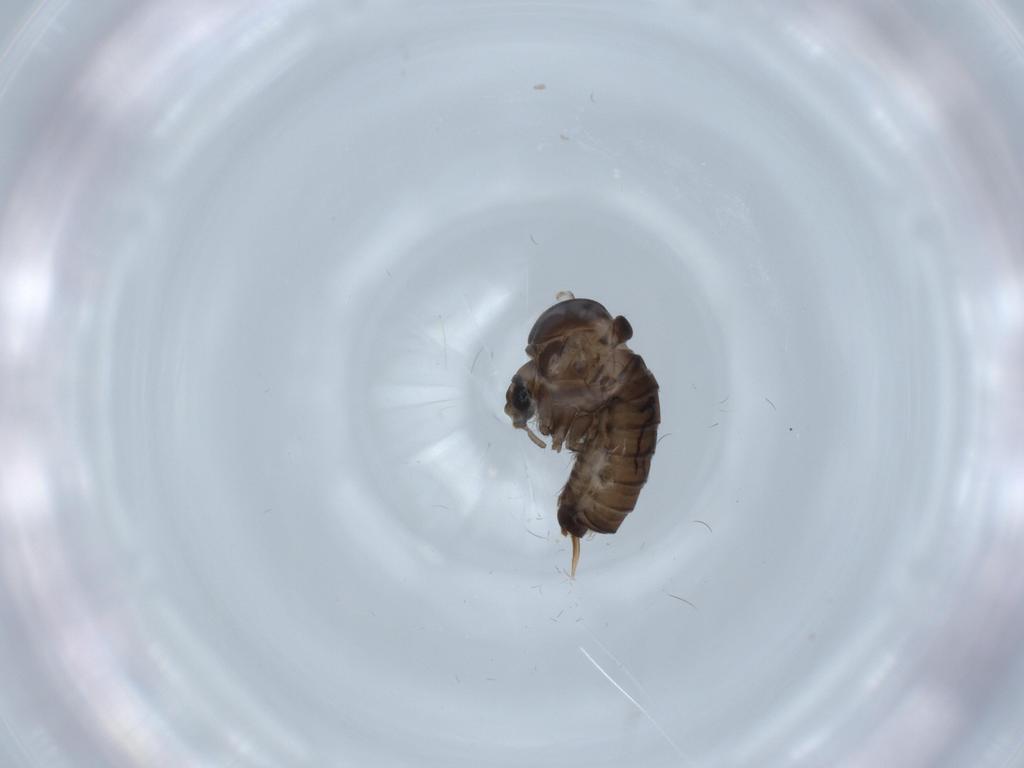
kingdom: Animalia
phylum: Arthropoda
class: Insecta
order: Diptera
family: Psychodidae
